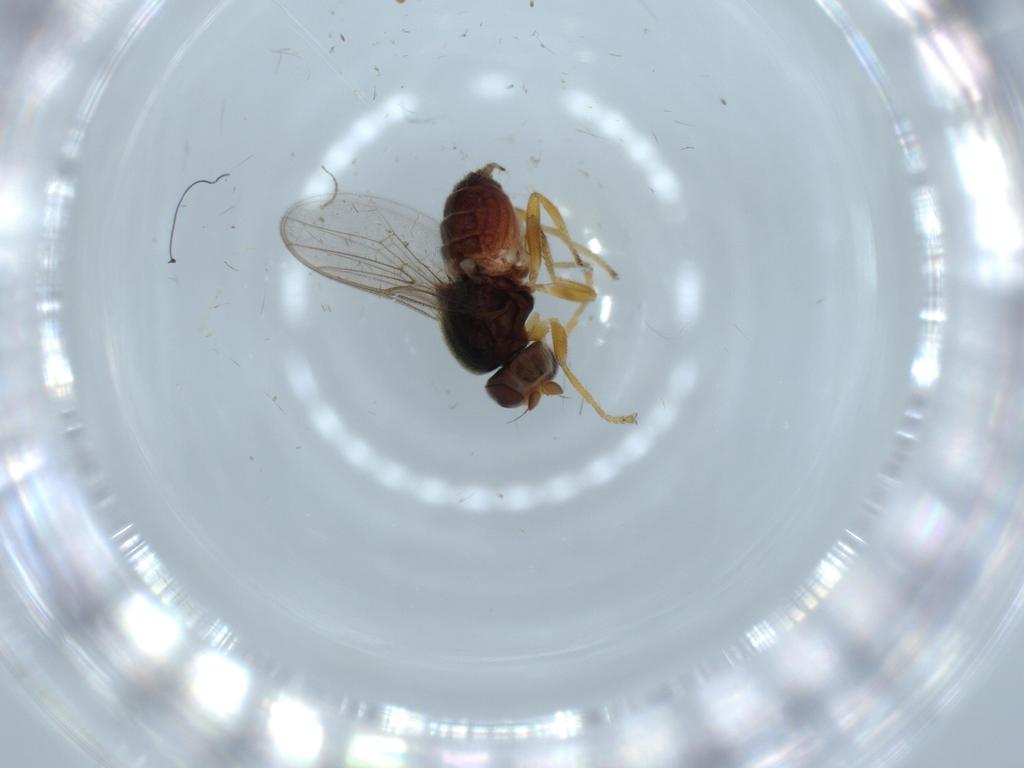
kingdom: Animalia
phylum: Arthropoda
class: Insecta
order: Diptera
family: Chloropidae
